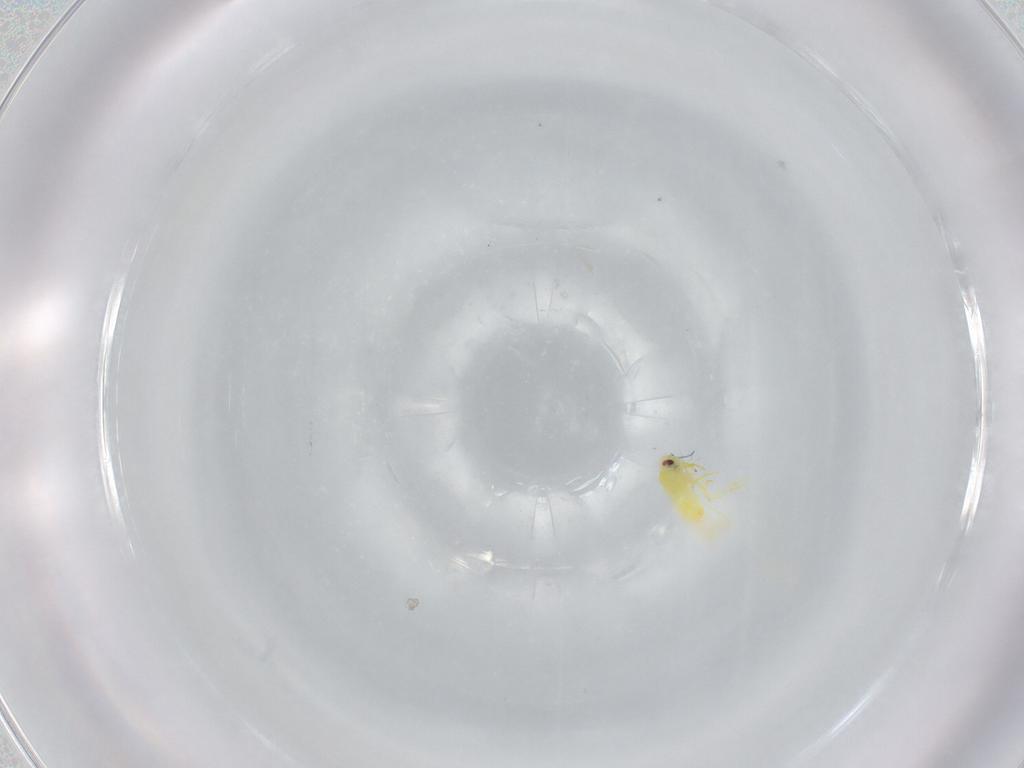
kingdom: Animalia
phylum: Arthropoda
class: Insecta
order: Hemiptera
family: Aleyrodidae
